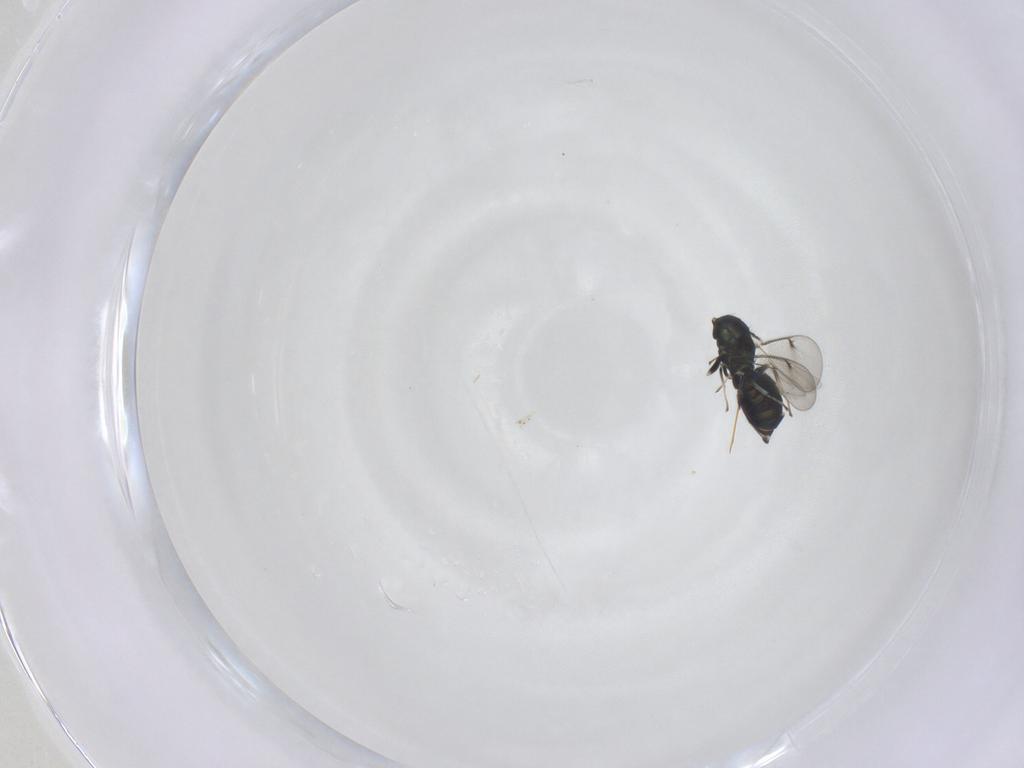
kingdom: Animalia
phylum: Arthropoda
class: Insecta
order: Hymenoptera
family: Eulophidae
